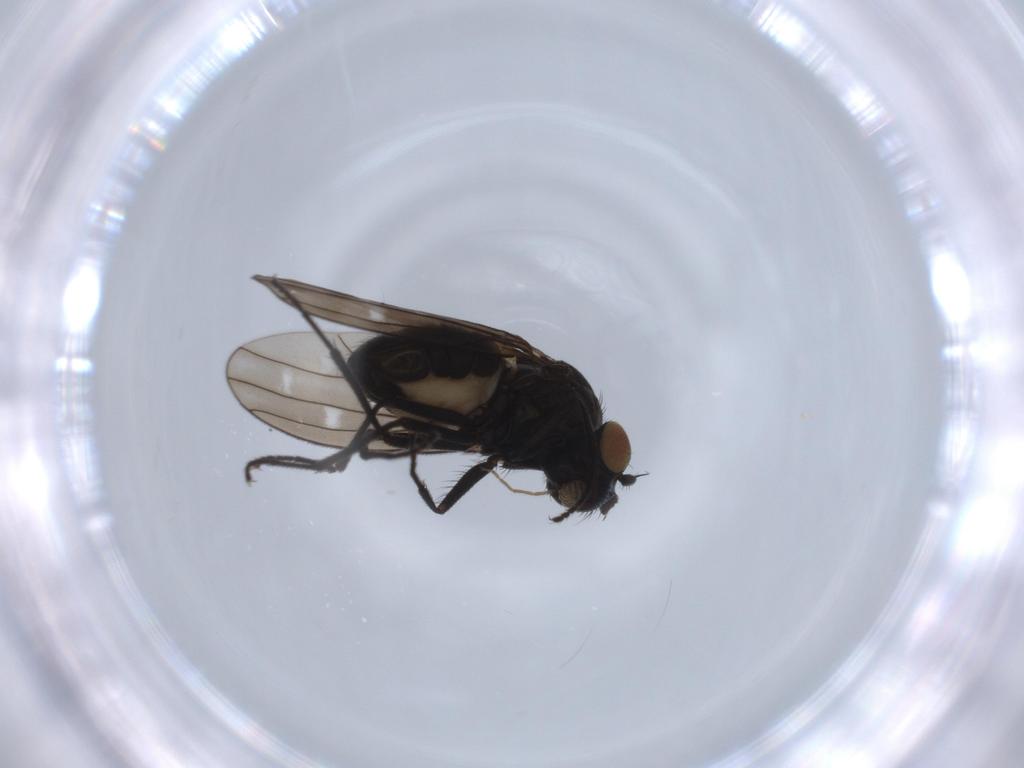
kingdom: Animalia
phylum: Arthropoda
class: Insecta
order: Diptera
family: Chironomidae
